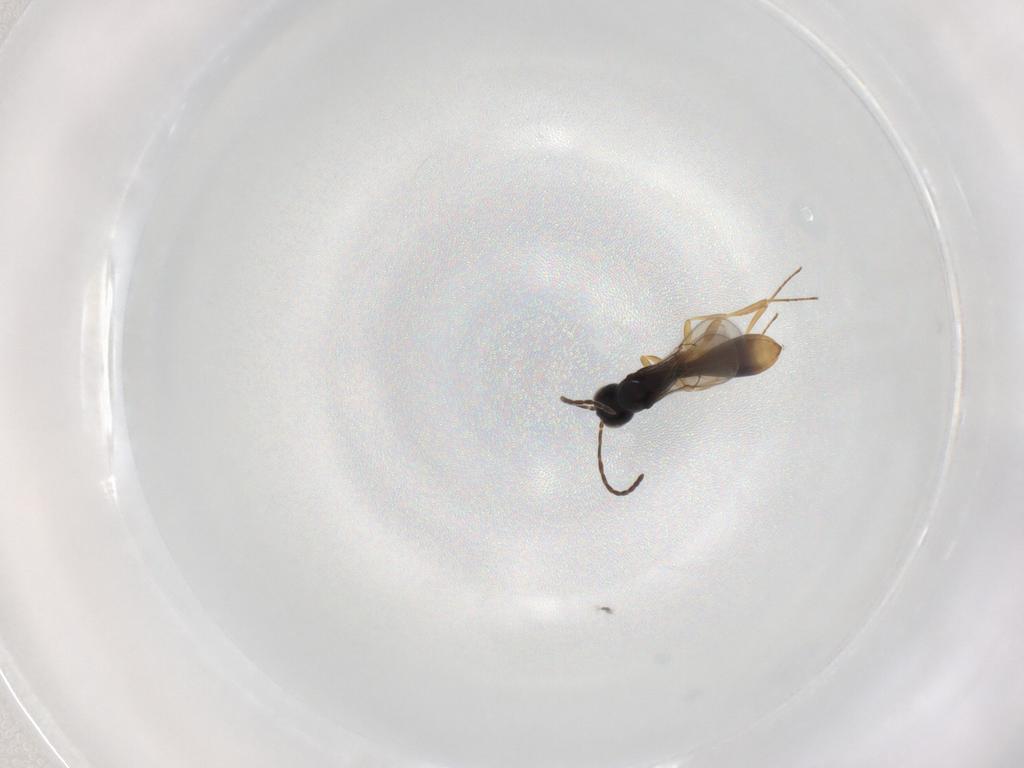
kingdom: Animalia
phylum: Arthropoda
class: Insecta
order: Hymenoptera
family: Scelionidae
